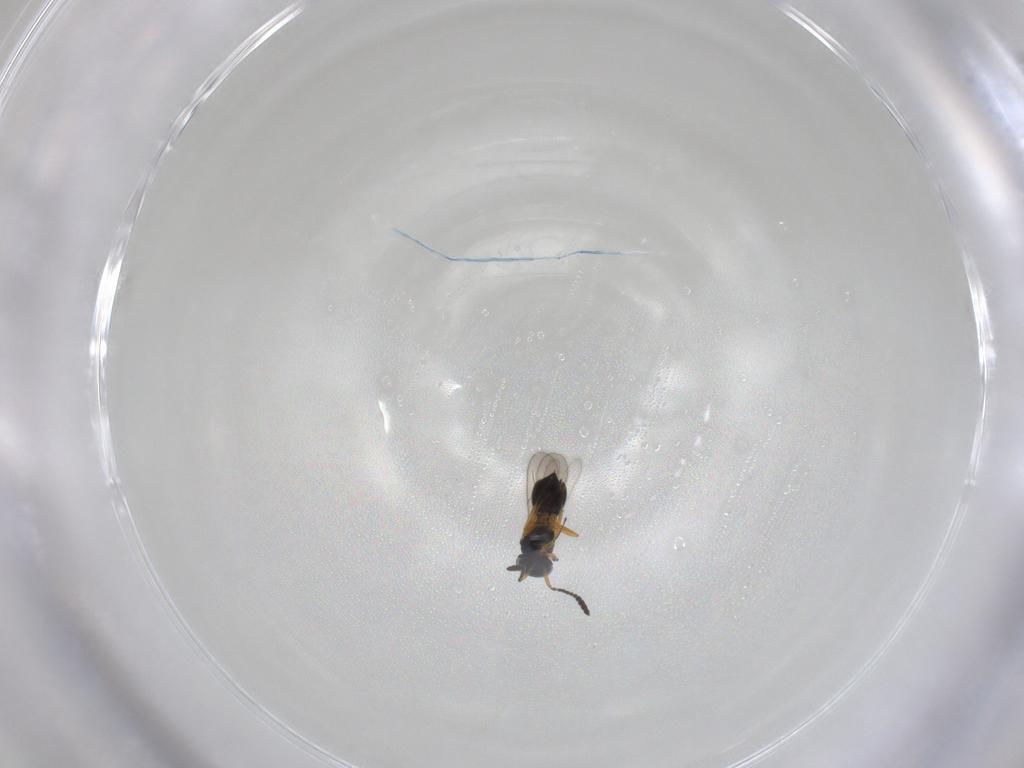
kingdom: Animalia
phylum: Arthropoda
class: Insecta
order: Hymenoptera
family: Scelionidae
